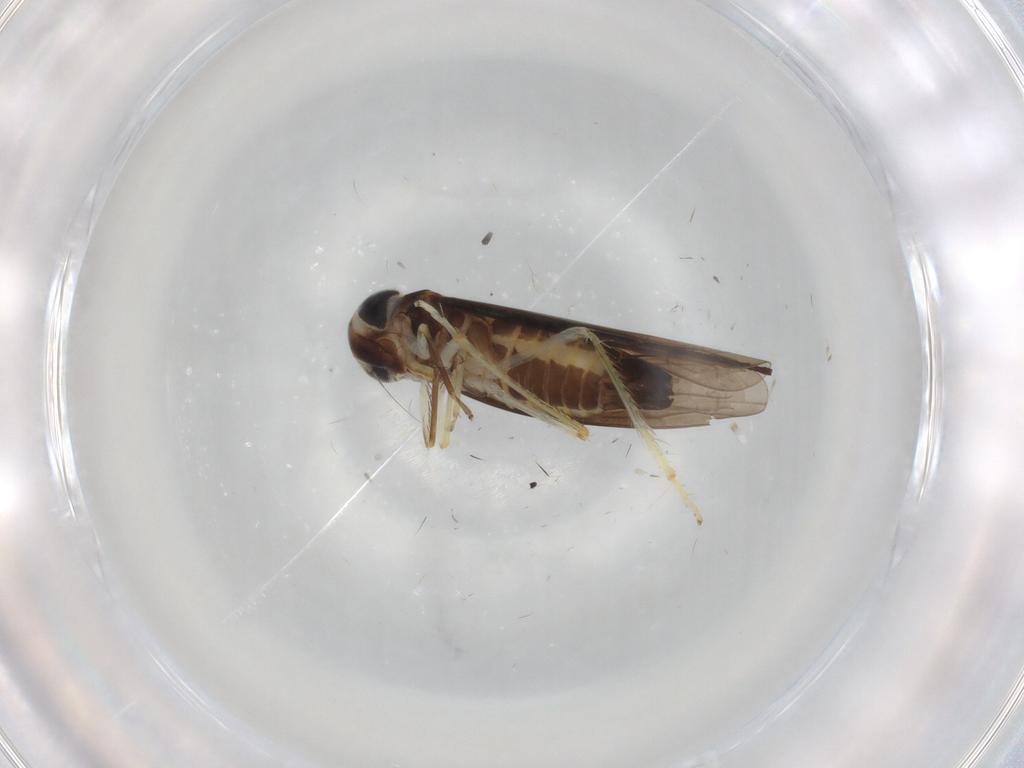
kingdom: Animalia
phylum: Arthropoda
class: Insecta
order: Hemiptera
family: Cicadellidae
